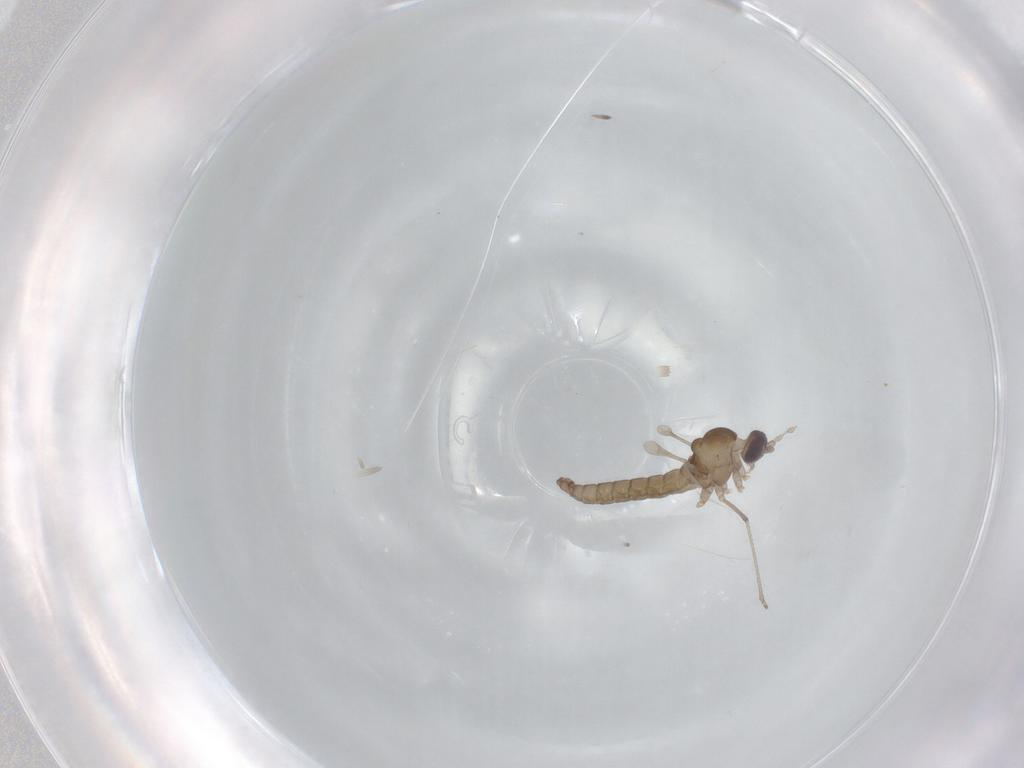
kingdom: Animalia
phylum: Arthropoda
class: Insecta
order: Diptera
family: Cecidomyiidae
